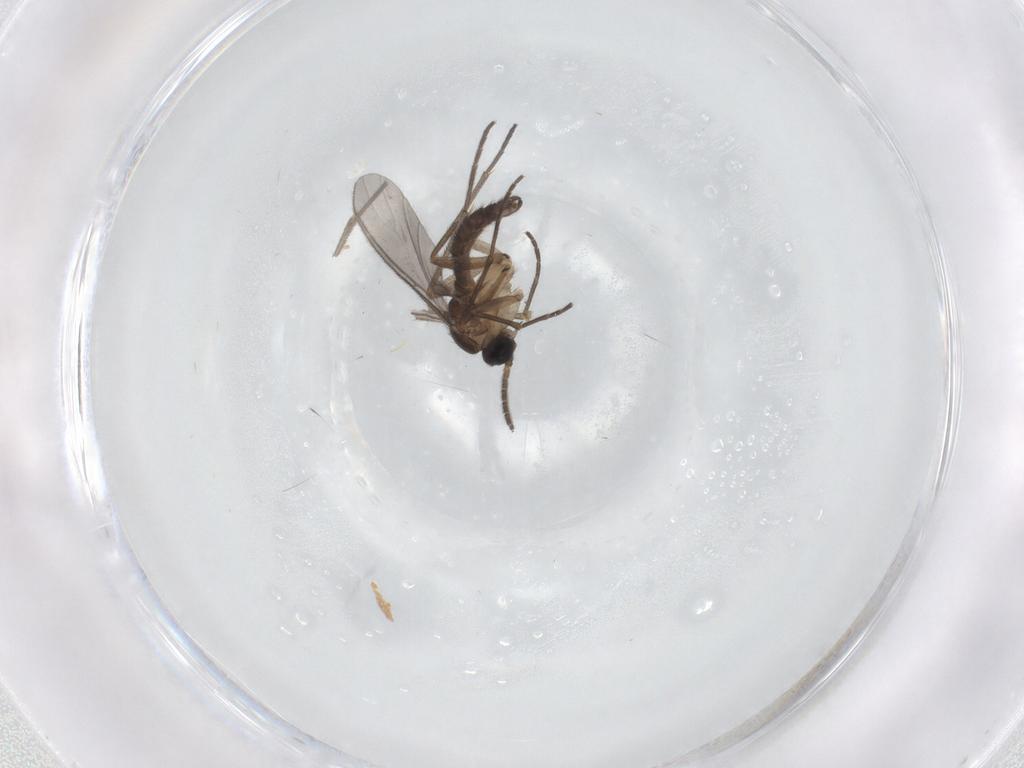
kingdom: Animalia
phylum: Arthropoda
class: Insecta
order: Diptera
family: Sciaridae
